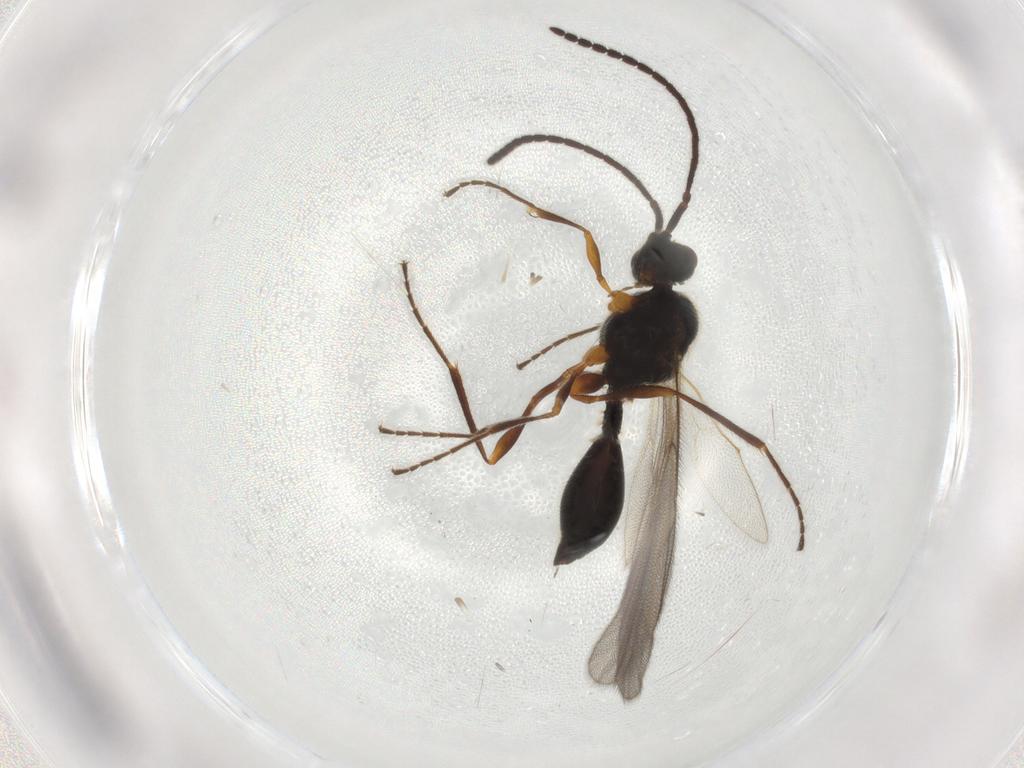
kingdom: Animalia
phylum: Arthropoda
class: Insecta
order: Hymenoptera
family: Diapriidae
